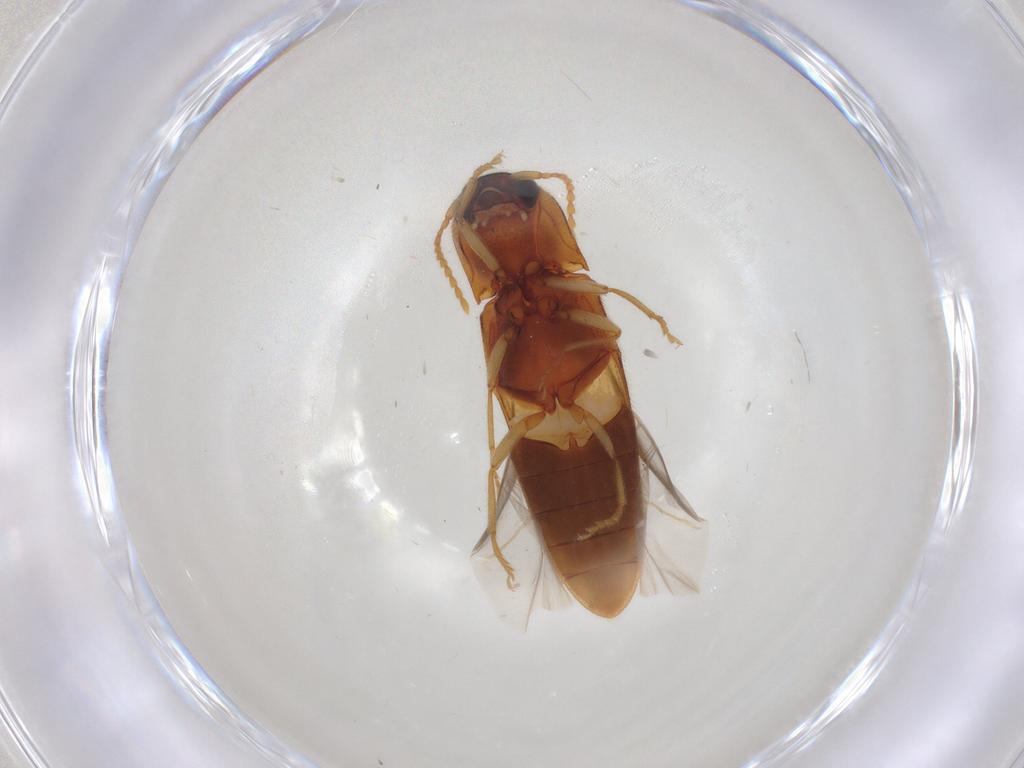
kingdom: Animalia
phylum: Arthropoda
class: Insecta
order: Coleoptera
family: Elateridae
